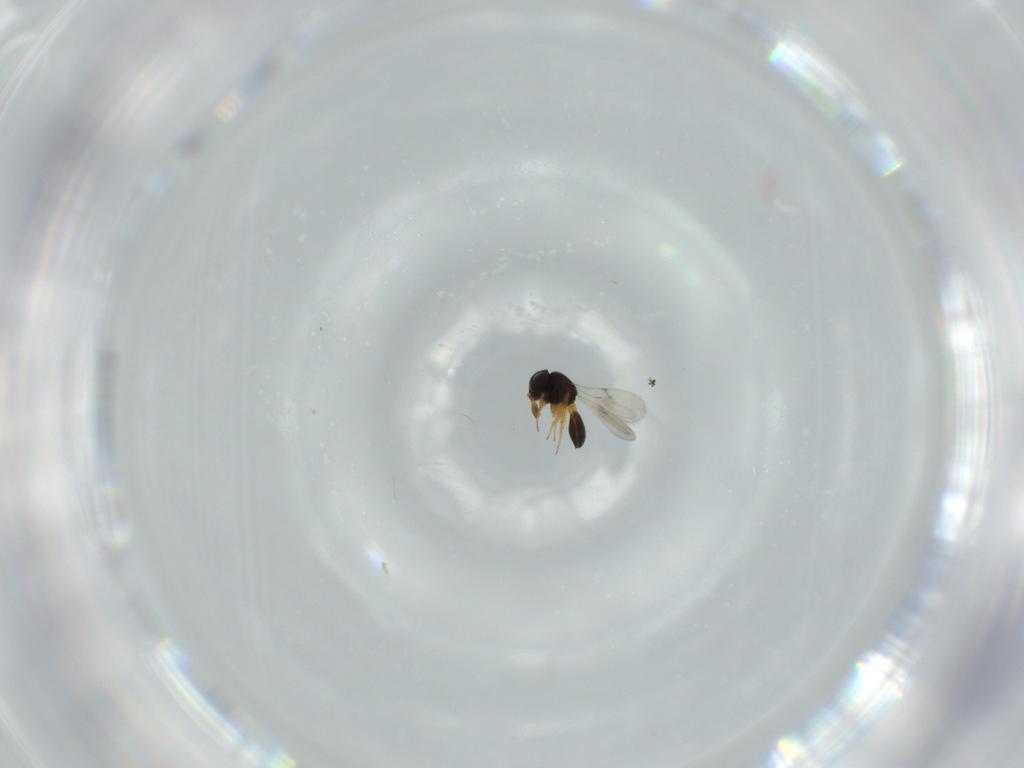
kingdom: Animalia
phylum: Arthropoda
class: Insecta
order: Hymenoptera
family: Scelionidae
